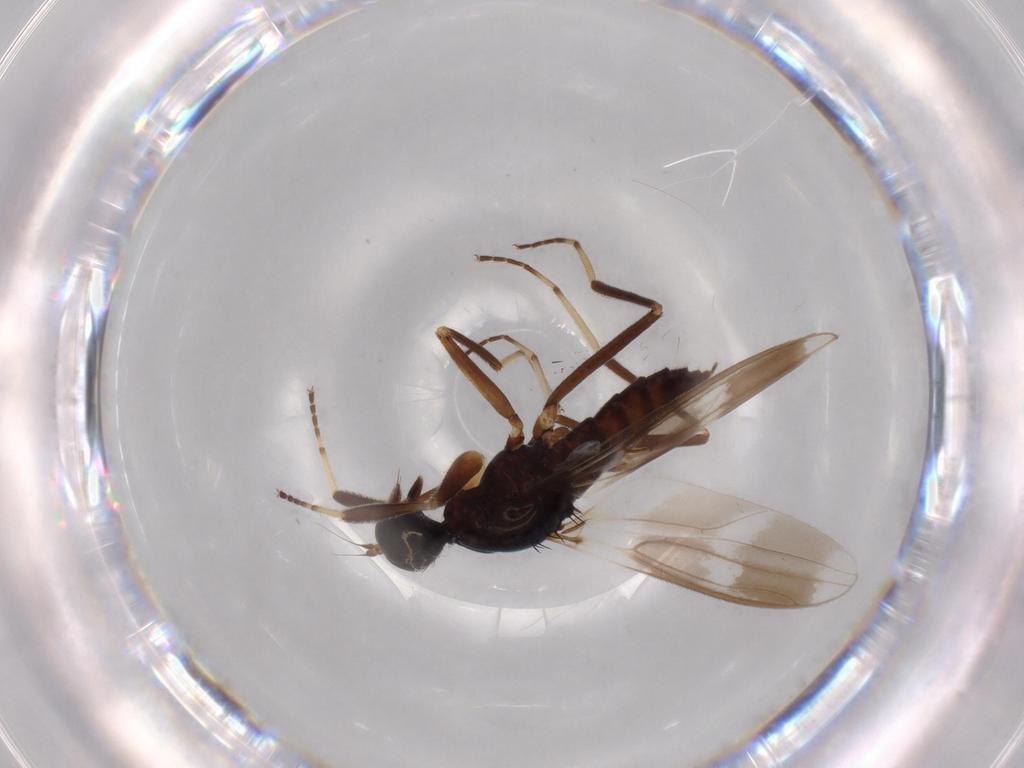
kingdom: Animalia
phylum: Arthropoda
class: Insecta
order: Diptera
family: Hybotidae
